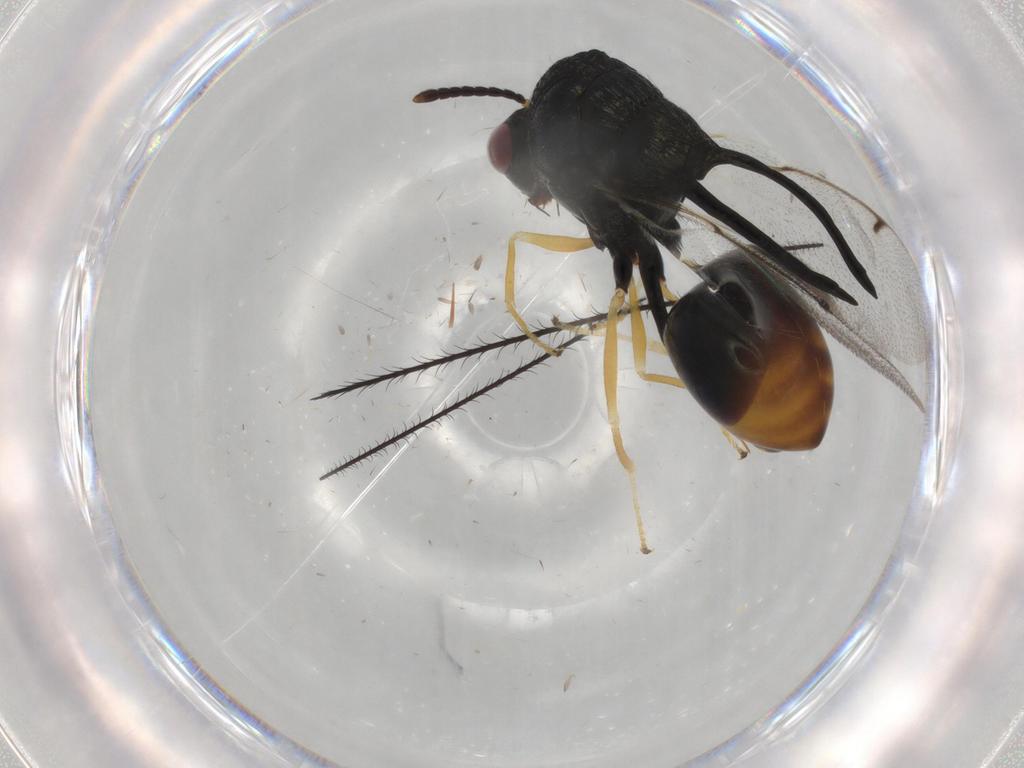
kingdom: Animalia
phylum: Arthropoda
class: Insecta
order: Hymenoptera
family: Eucharitidae
